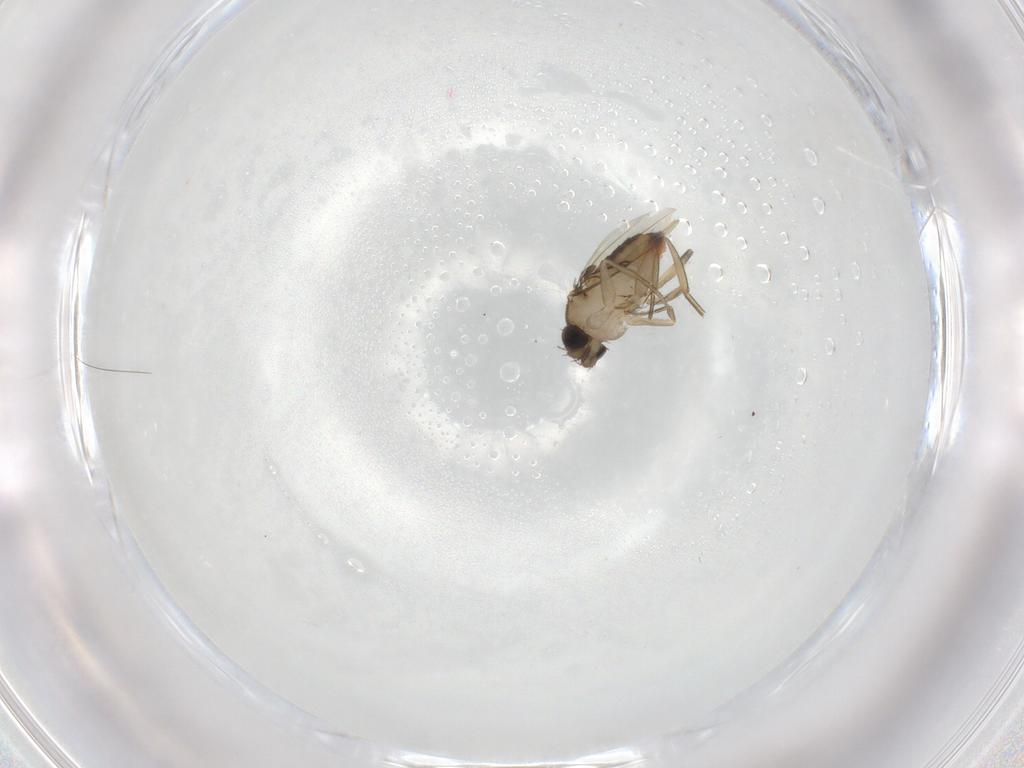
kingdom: Animalia
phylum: Arthropoda
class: Insecta
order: Diptera
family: Phoridae
